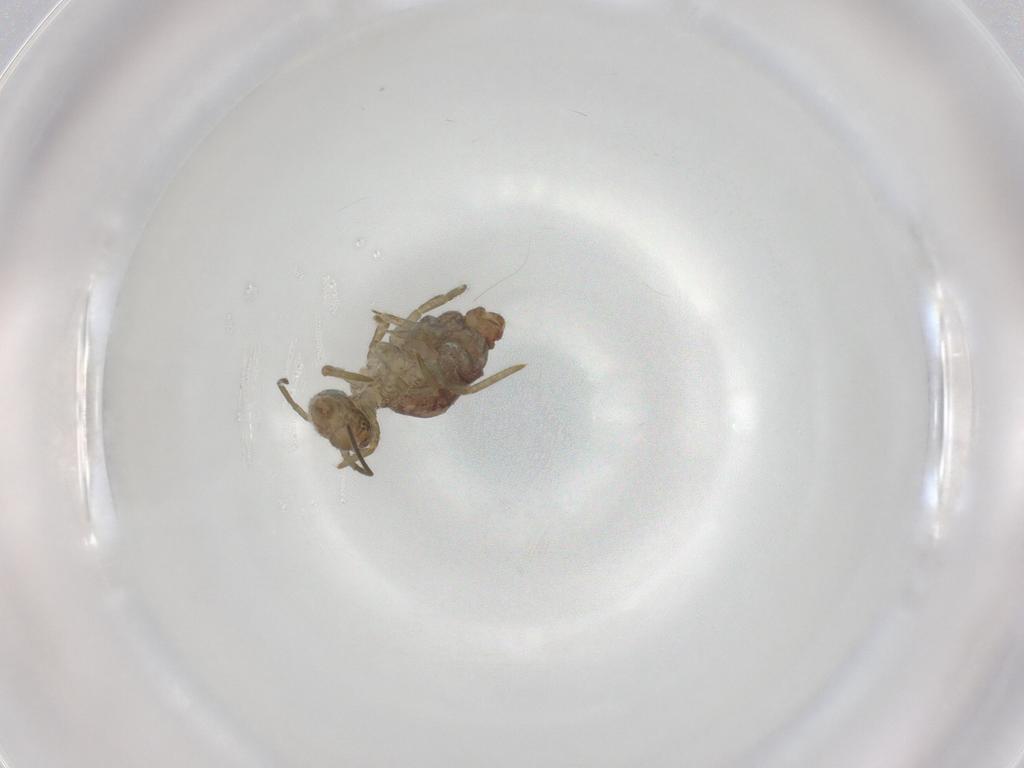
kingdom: Animalia
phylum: Arthropoda
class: Collembola
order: Symphypleona
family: Sminthuridae
